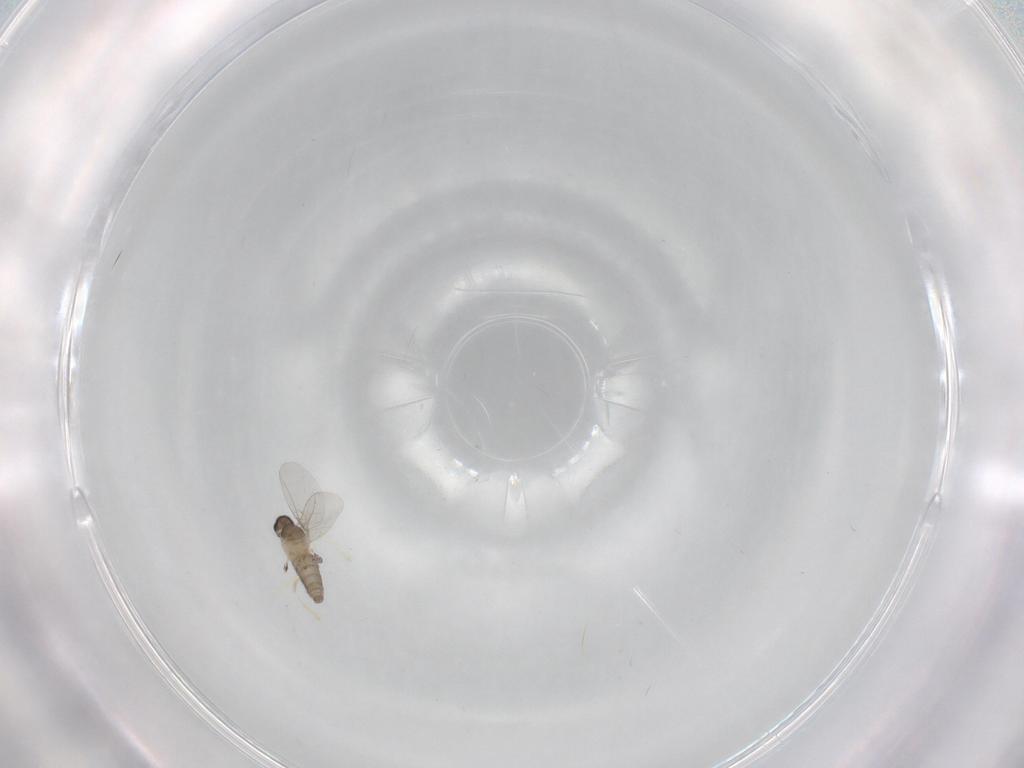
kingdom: Animalia
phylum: Arthropoda
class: Insecta
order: Diptera
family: Cecidomyiidae
